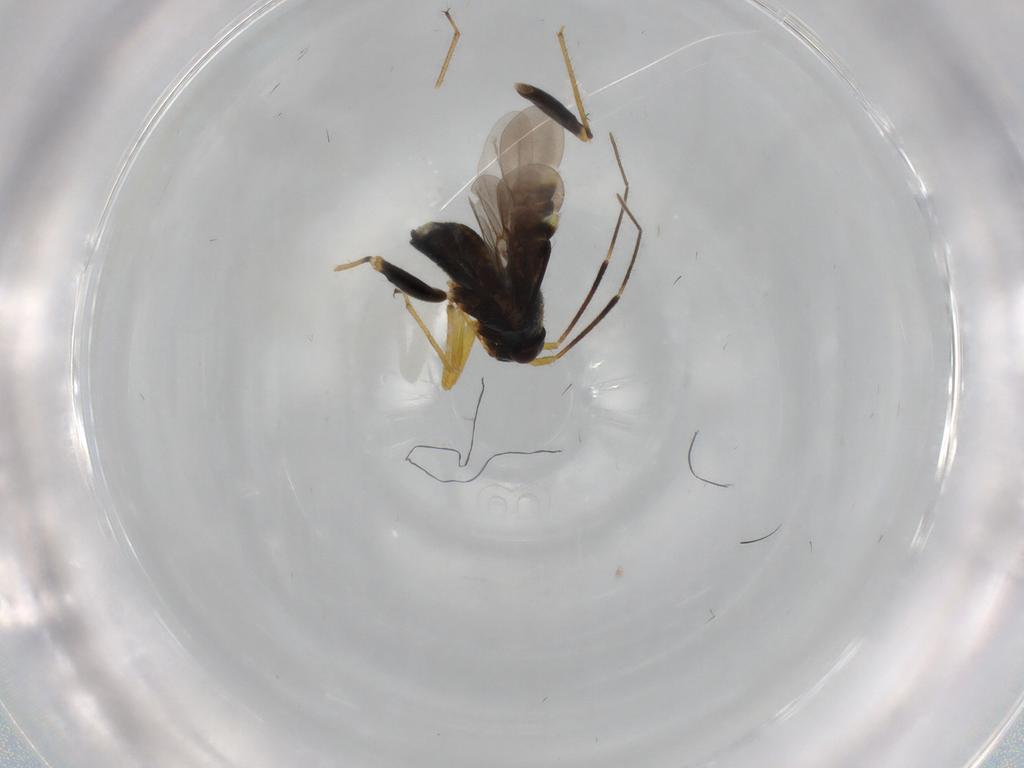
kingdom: Animalia
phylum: Arthropoda
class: Insecta
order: Hemiptera
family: Miridae
